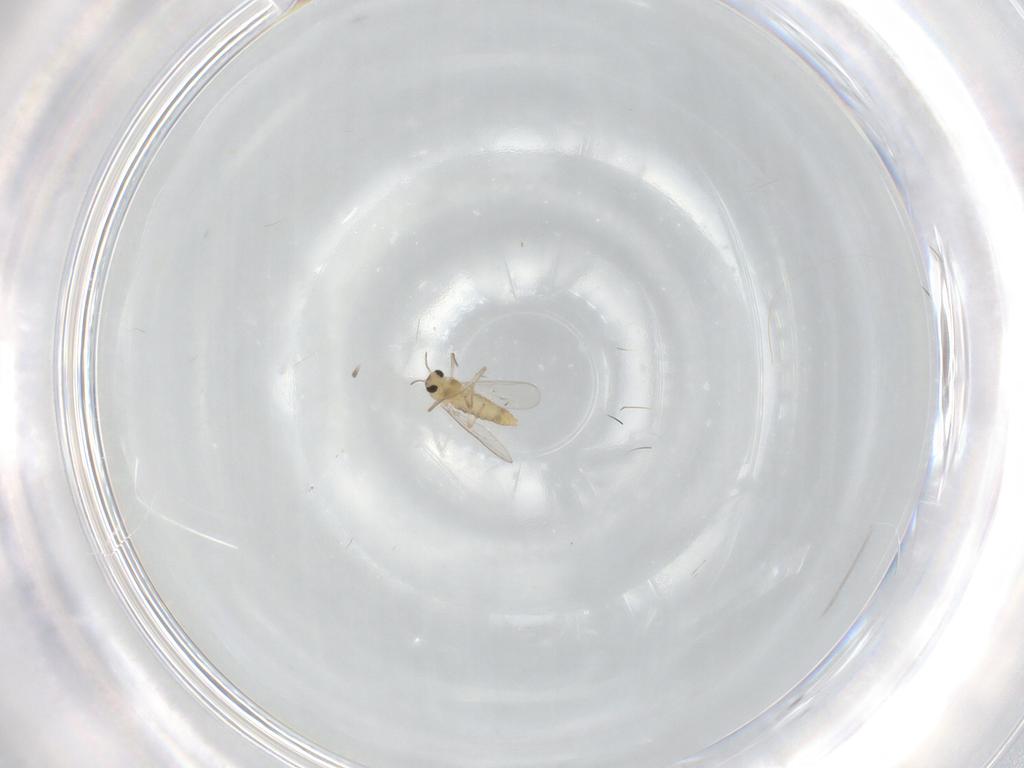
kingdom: Animalia
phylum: Arthropoda
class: Insecta
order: Diptera
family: Chironomidae
